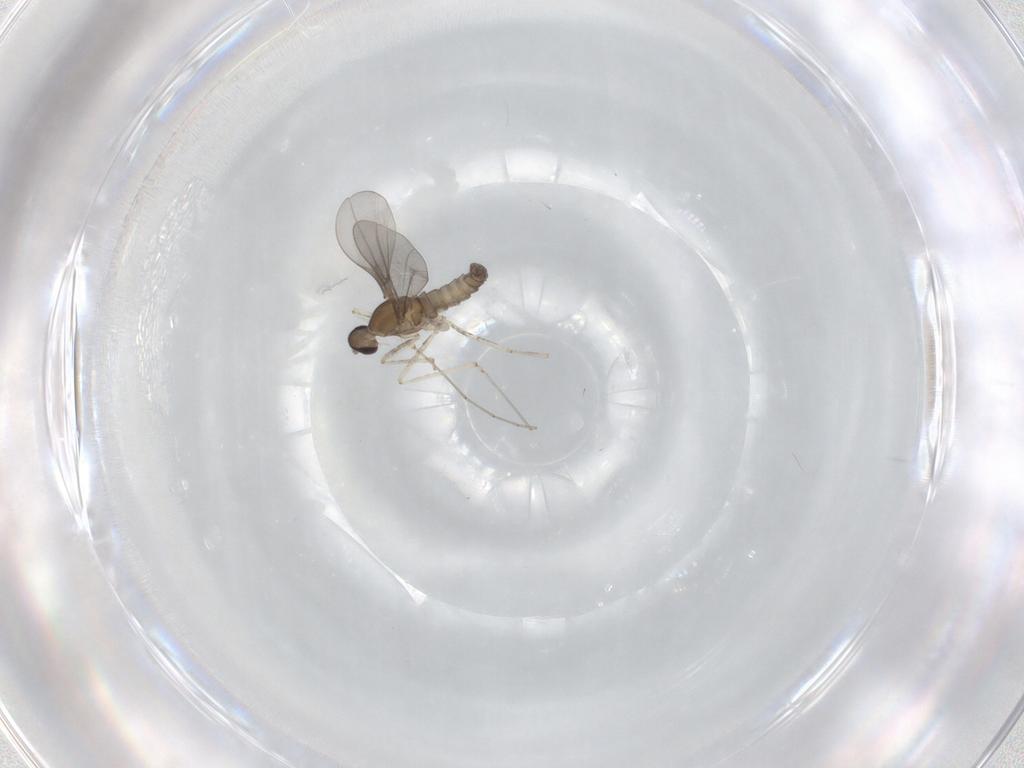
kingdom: Animalia
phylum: Arthropoda
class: Insecta
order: Diptera
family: Cecidomyiidae
